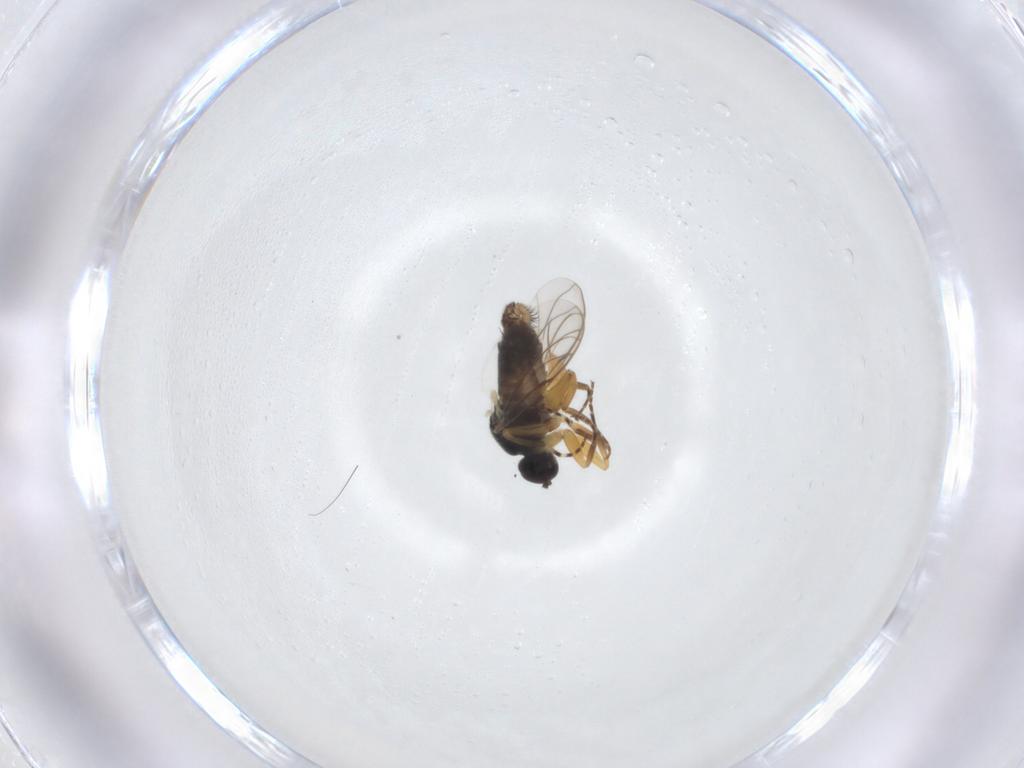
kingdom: Animalia
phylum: Arthropoda
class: Insecta
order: Diptera
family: Hybotidae
